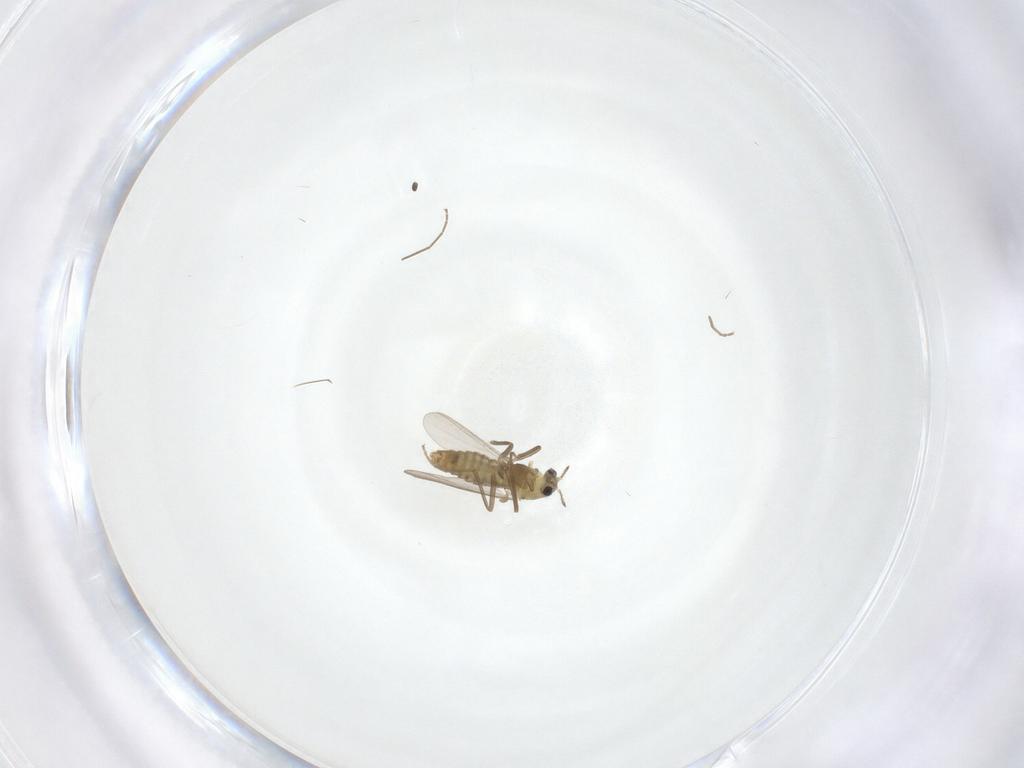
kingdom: Animalia
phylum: Arthropoda
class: Insecta
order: Diptera
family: Chironomidae
